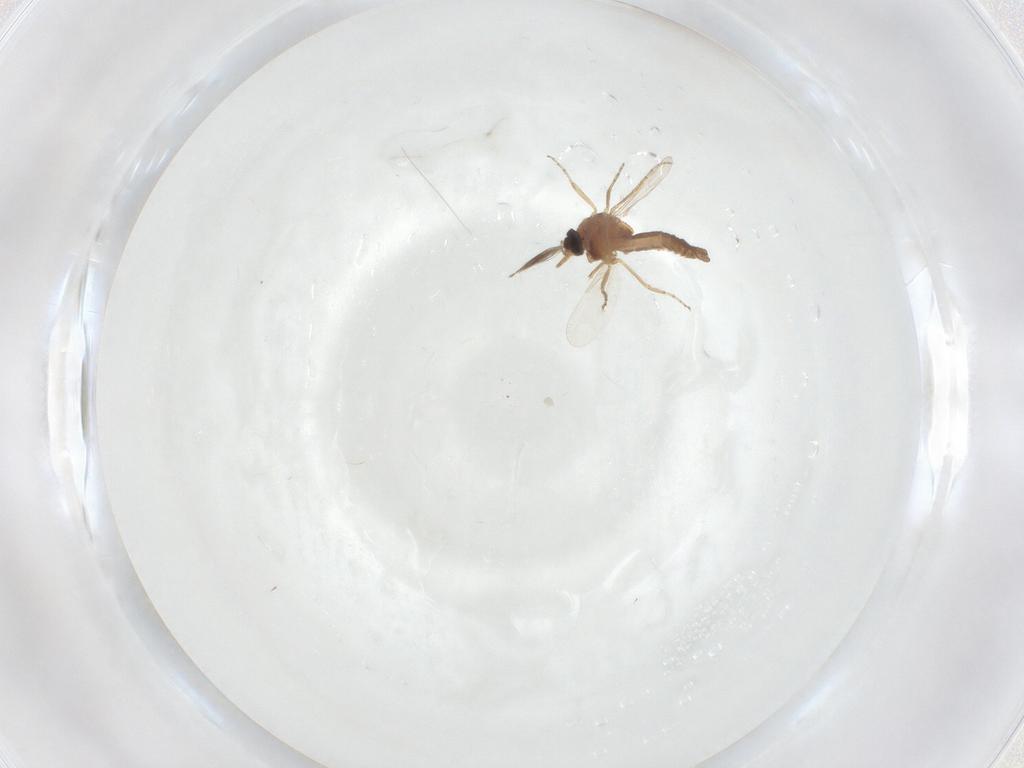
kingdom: Animalia
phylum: Arthropoda
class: Insecta
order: Diptera
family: Ceratopogonidae
